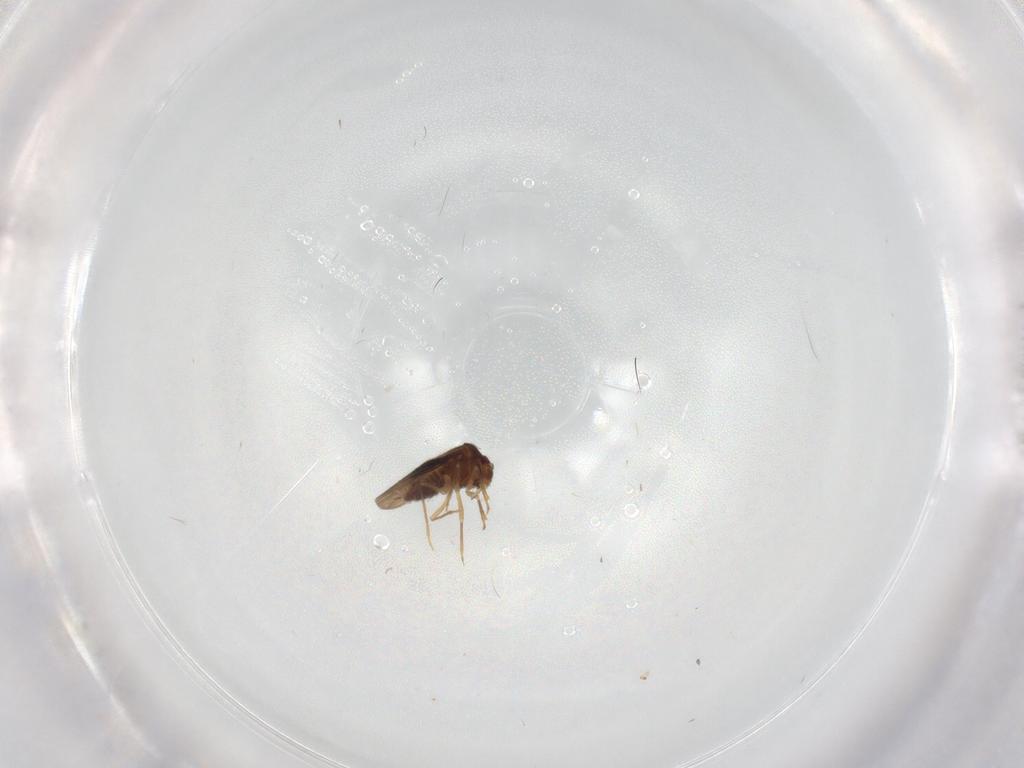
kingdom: Animalia
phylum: Arthropoda
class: Insecta
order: Hemiptera
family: Schizopteridae
